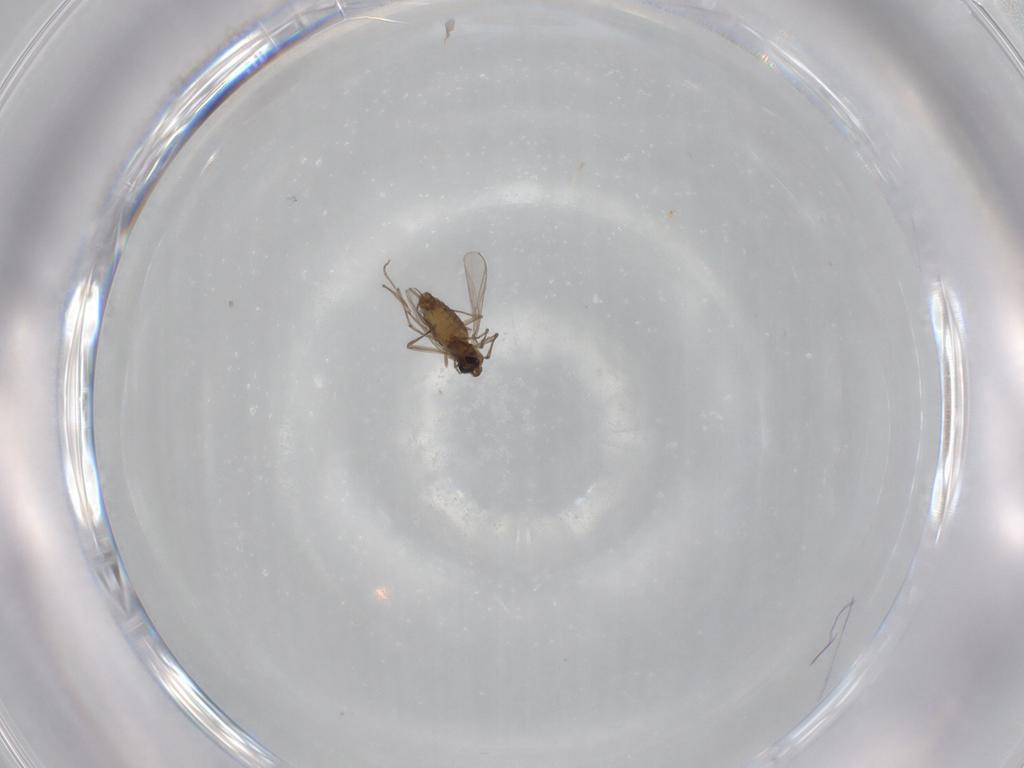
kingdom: Animalia
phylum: Arthropoda
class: Insecta
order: Diptera
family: Chironomidae
